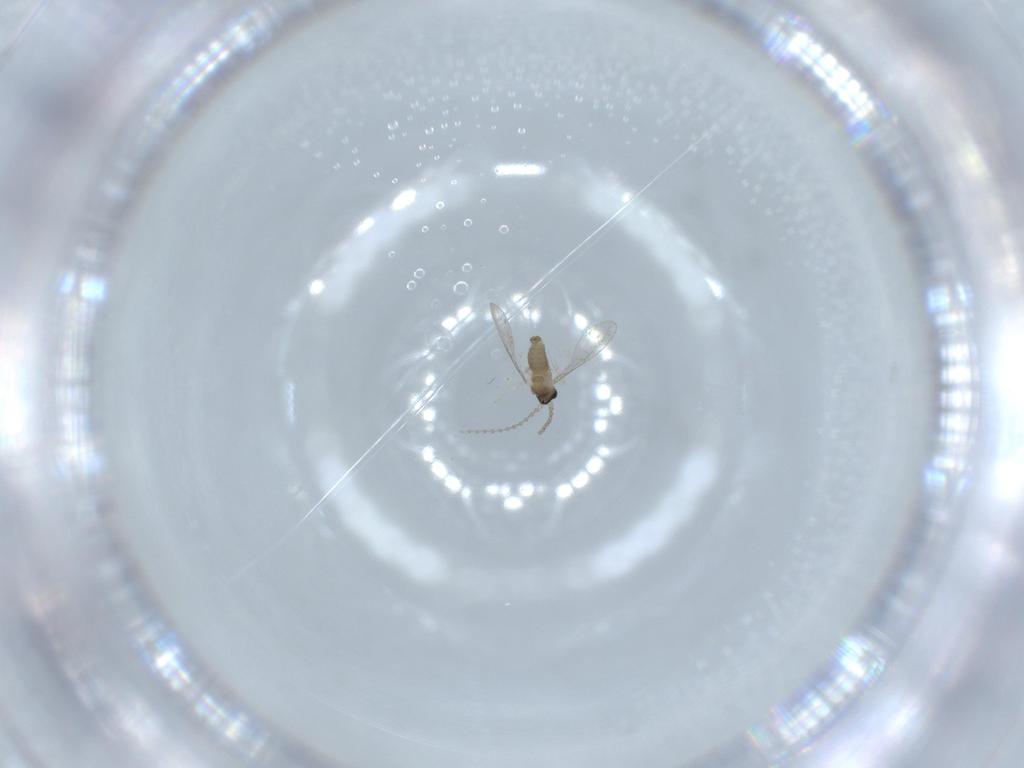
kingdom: Animalia
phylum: Arthropoda
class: Insecta
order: Diptera
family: Cecidomyiidae
